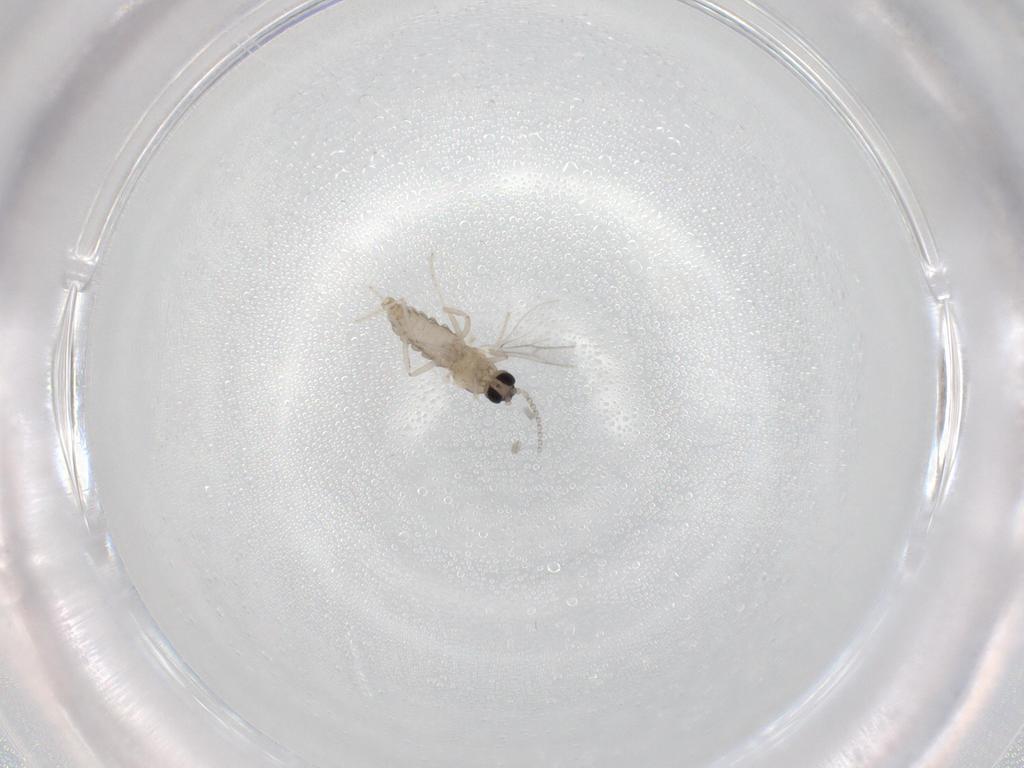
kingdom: Animalia
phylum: Arthropoda
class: Insecta
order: Diptera
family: Cecidomyiidae
